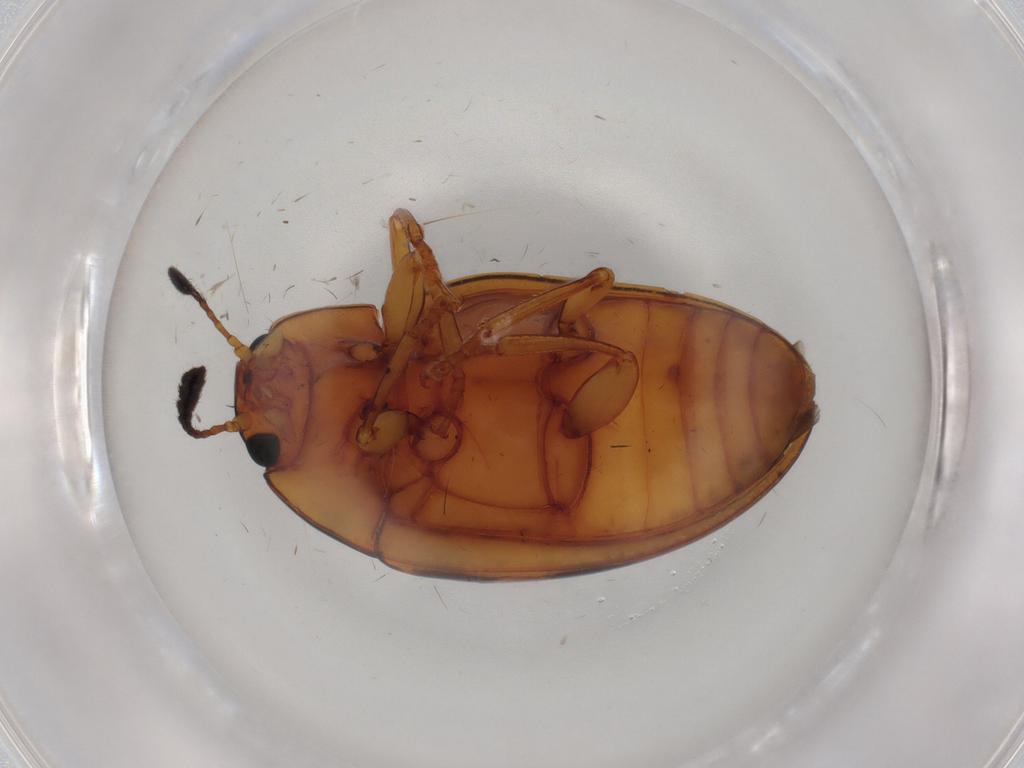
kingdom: Animalia
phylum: Arthropoda
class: Insecta
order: Coleoptera
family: Erotylidae
